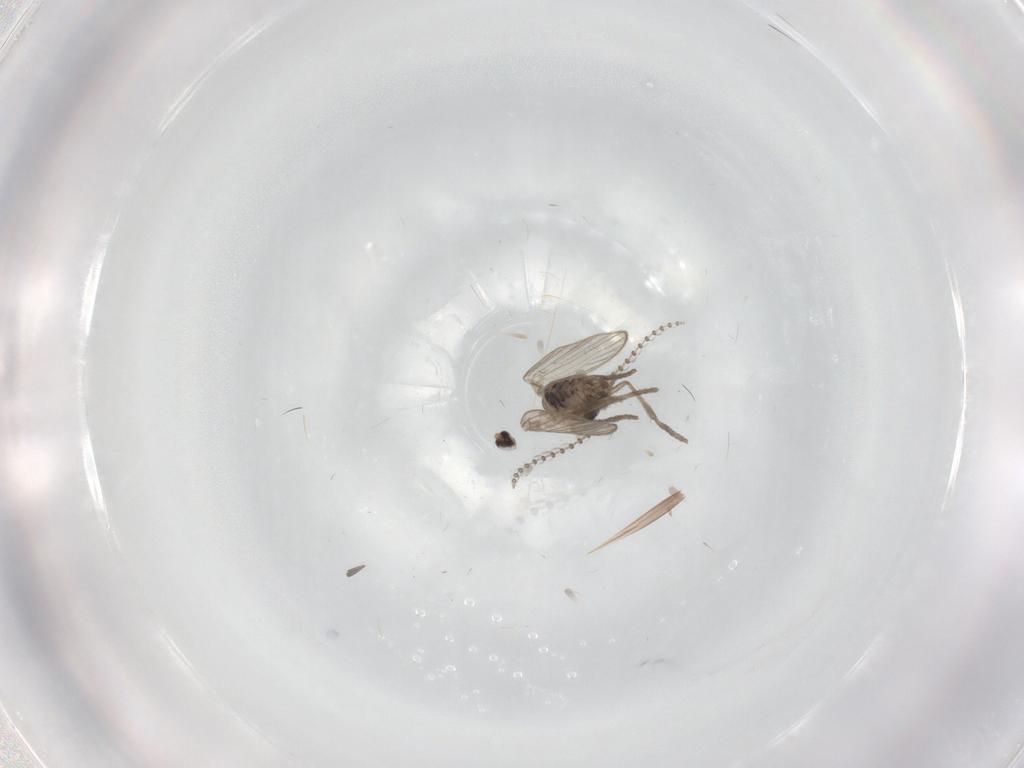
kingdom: Animalia
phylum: Arthropoda
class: Insecta
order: Diptera
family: Psychodidae
